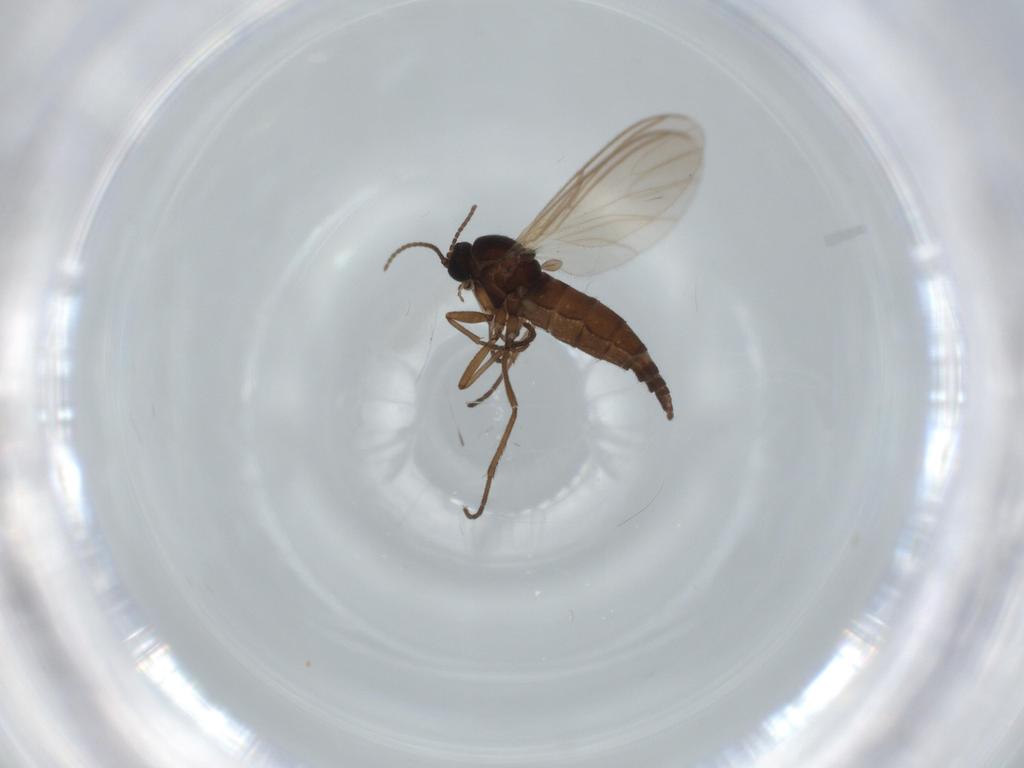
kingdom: Animalia
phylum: Arthropoda
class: Insecta
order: Diptera
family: Sciaridae
